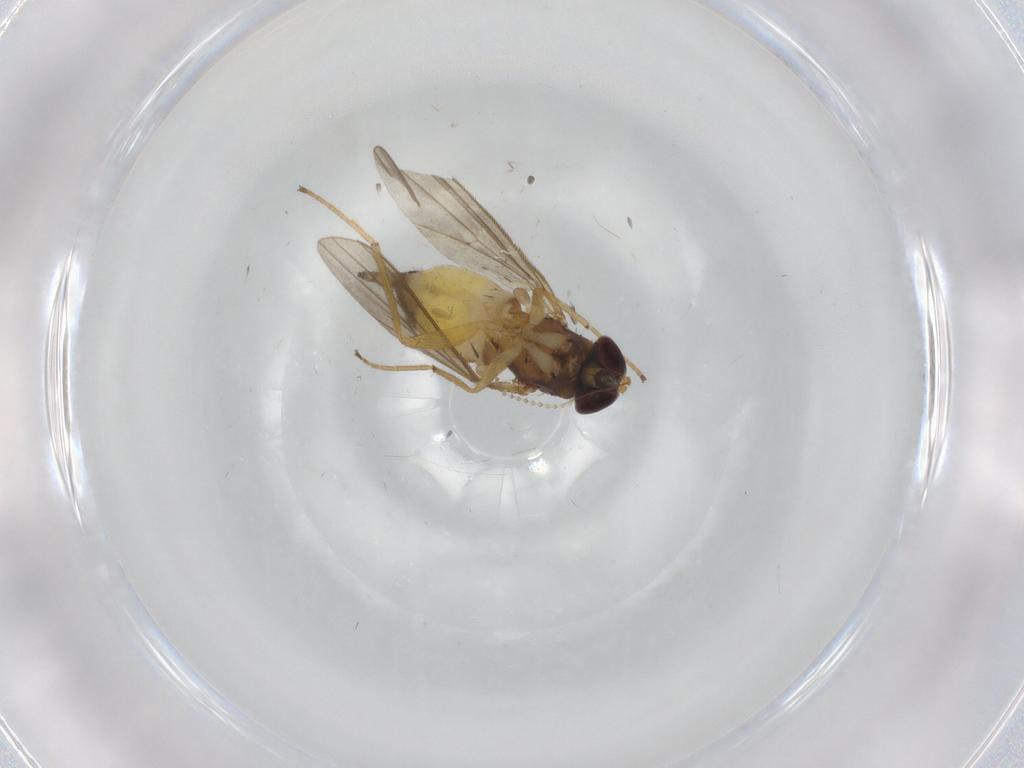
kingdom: Animalia
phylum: Arthropoda
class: Insecta
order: Diptera
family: Dolichopodidae
